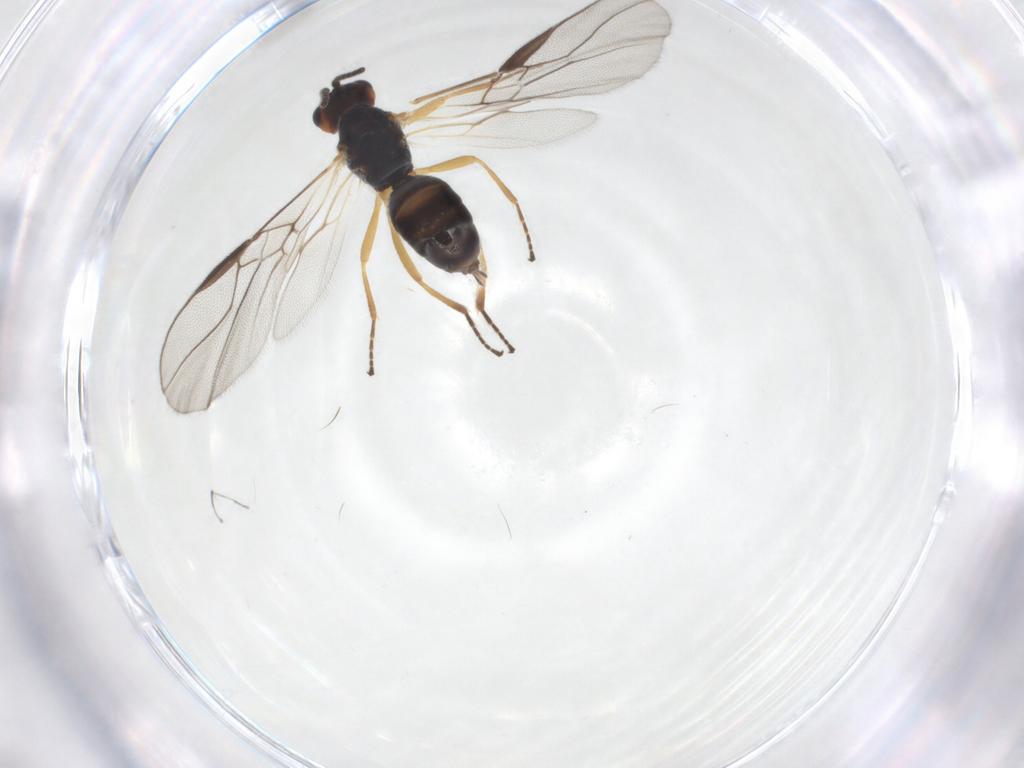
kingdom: Animalia
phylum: Arthropoda
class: Insecta
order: Hymenoptera
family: Braconidae
